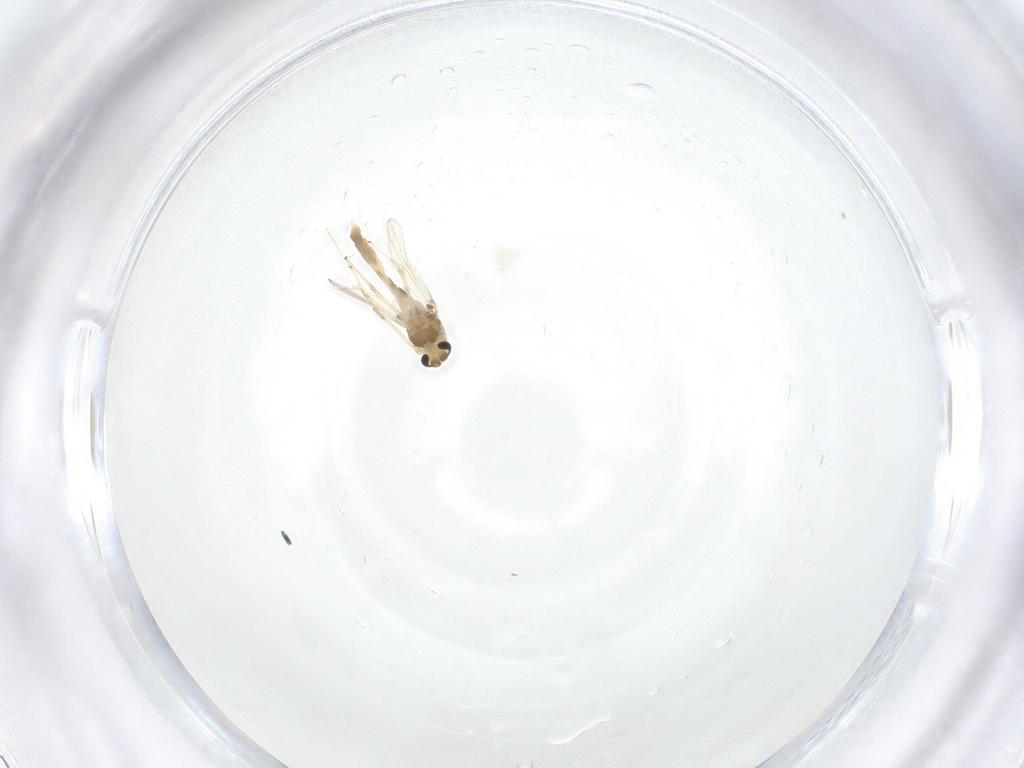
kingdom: Animalia
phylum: Arthropoda
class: Insecta
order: Diptera
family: Chironomidae
